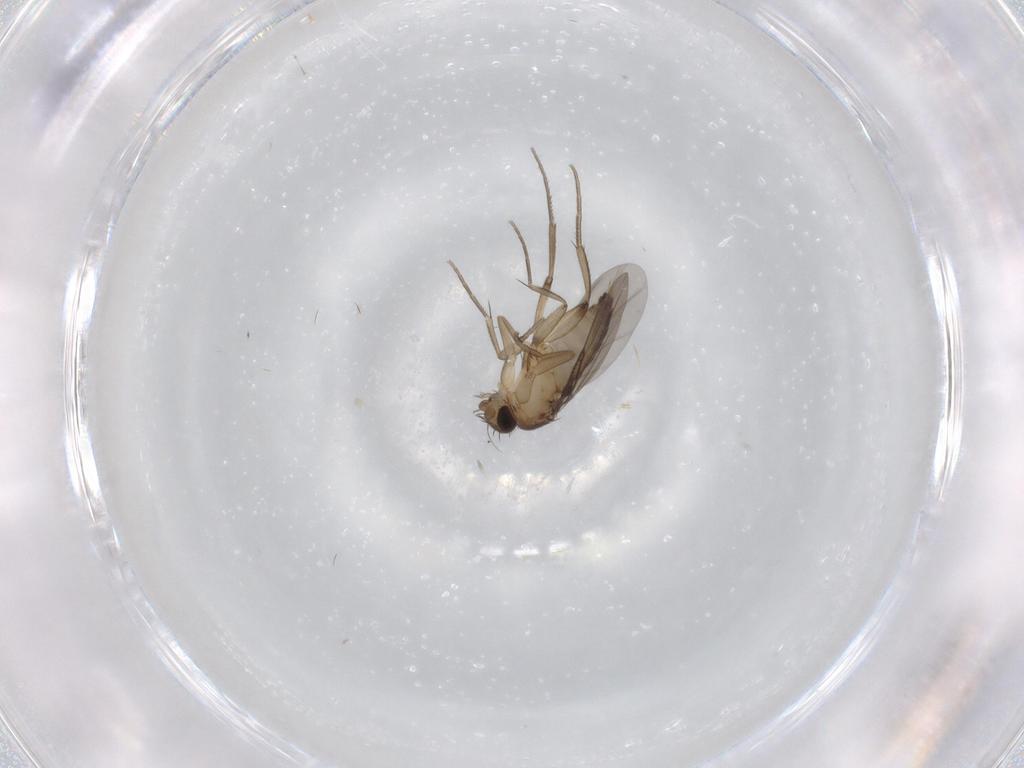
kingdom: Animalia
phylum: Arthropoda
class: Insecta
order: Diptera
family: Phoridae
